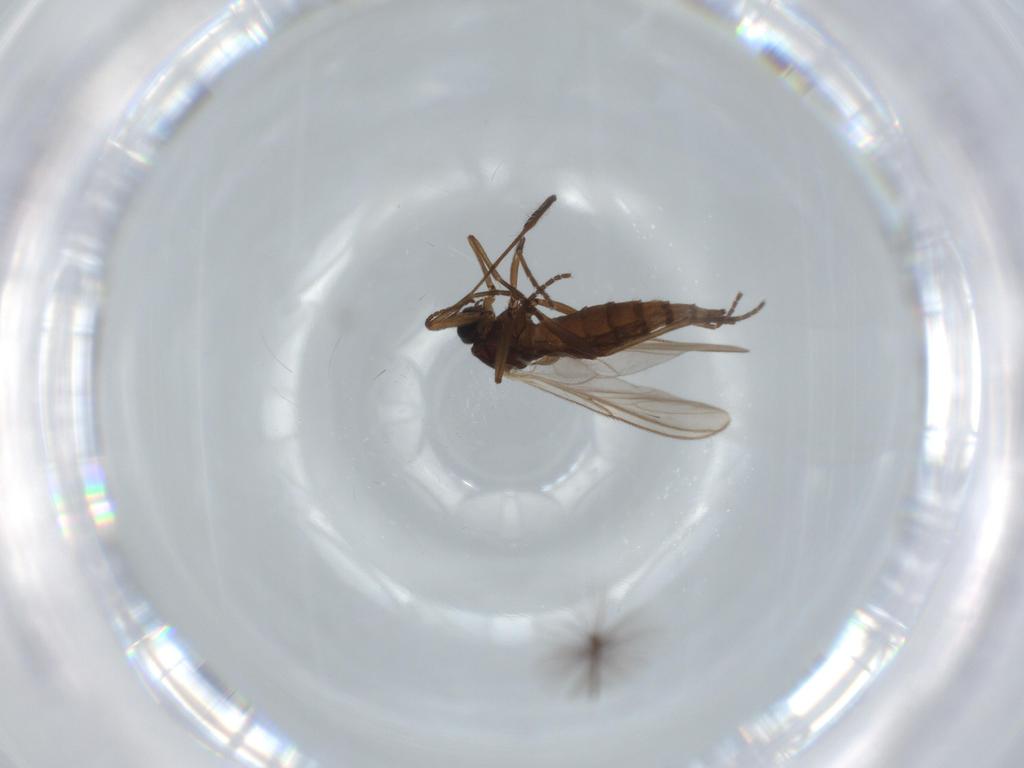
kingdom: Animalia
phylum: Arthropoda
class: Insecta
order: Diptera
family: Sciaridae
